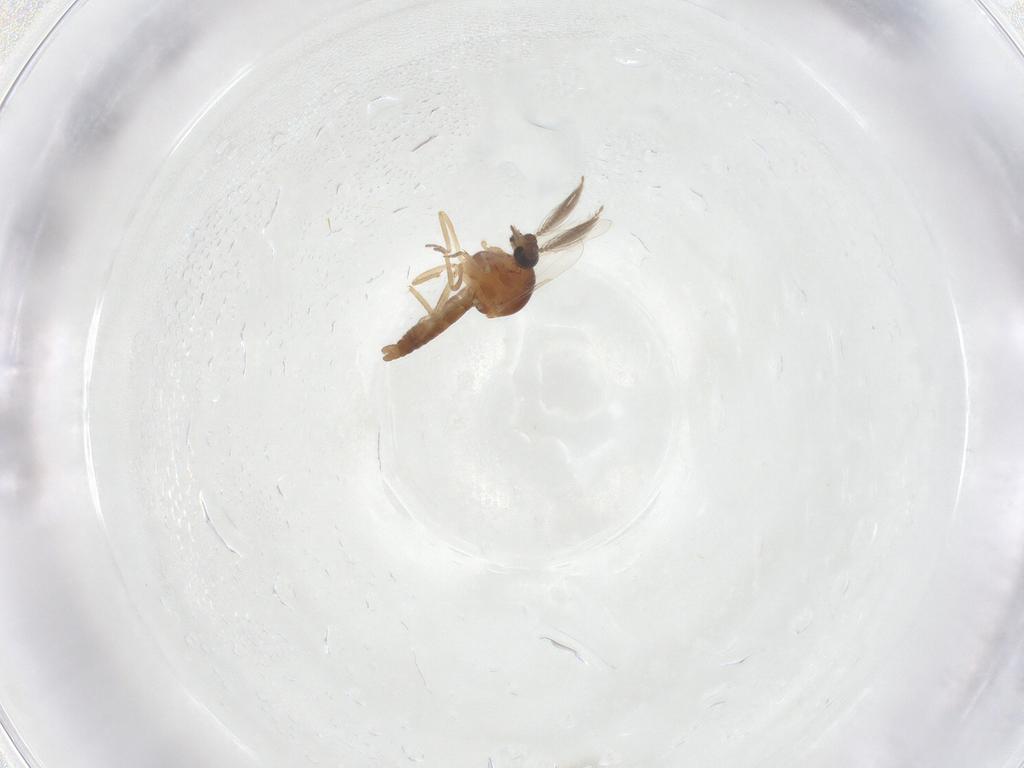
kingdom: Animalia
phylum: Arthropoda
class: Insecta
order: Diptera
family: Ceratopogonidae
